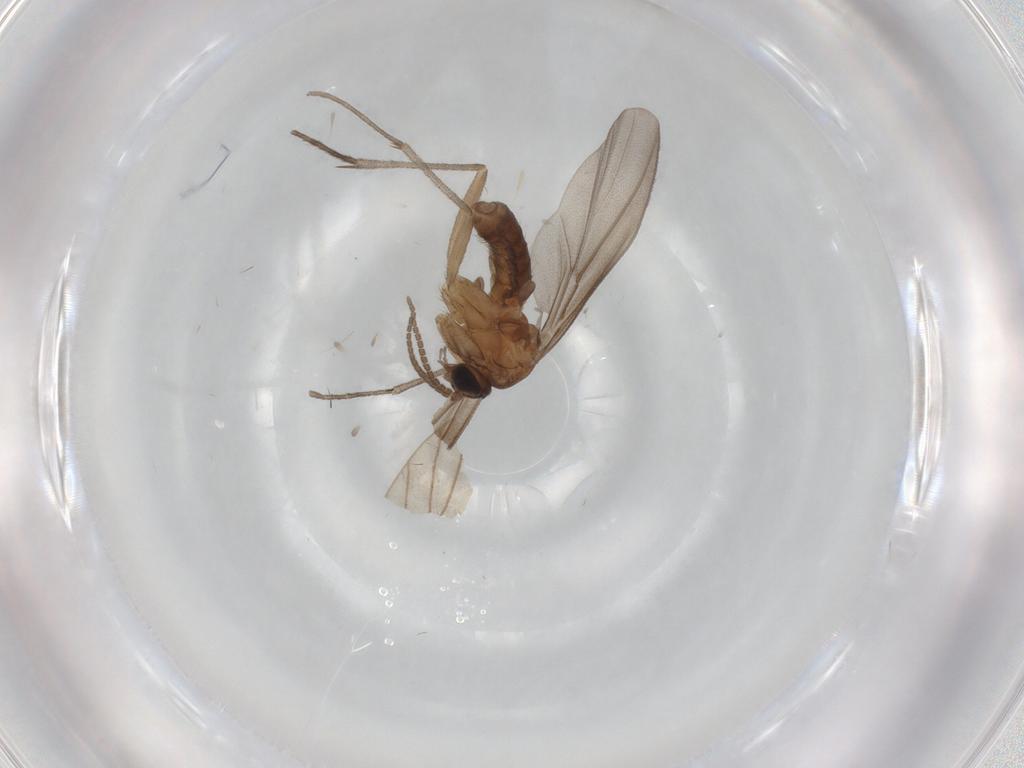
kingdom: Animalia
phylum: Arthropoda
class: Insecta
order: Diptera
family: Diadocidiidae
